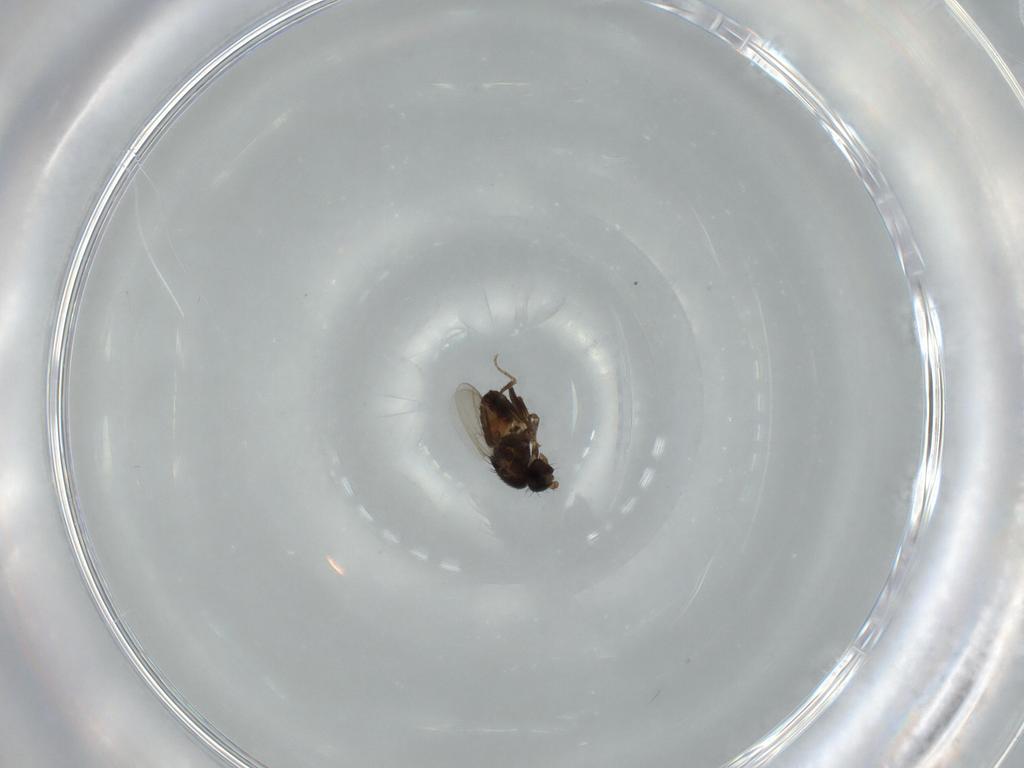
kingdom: Animalia
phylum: Arthropoda
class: Insecta
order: Diptera
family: Sphaeroceridae
